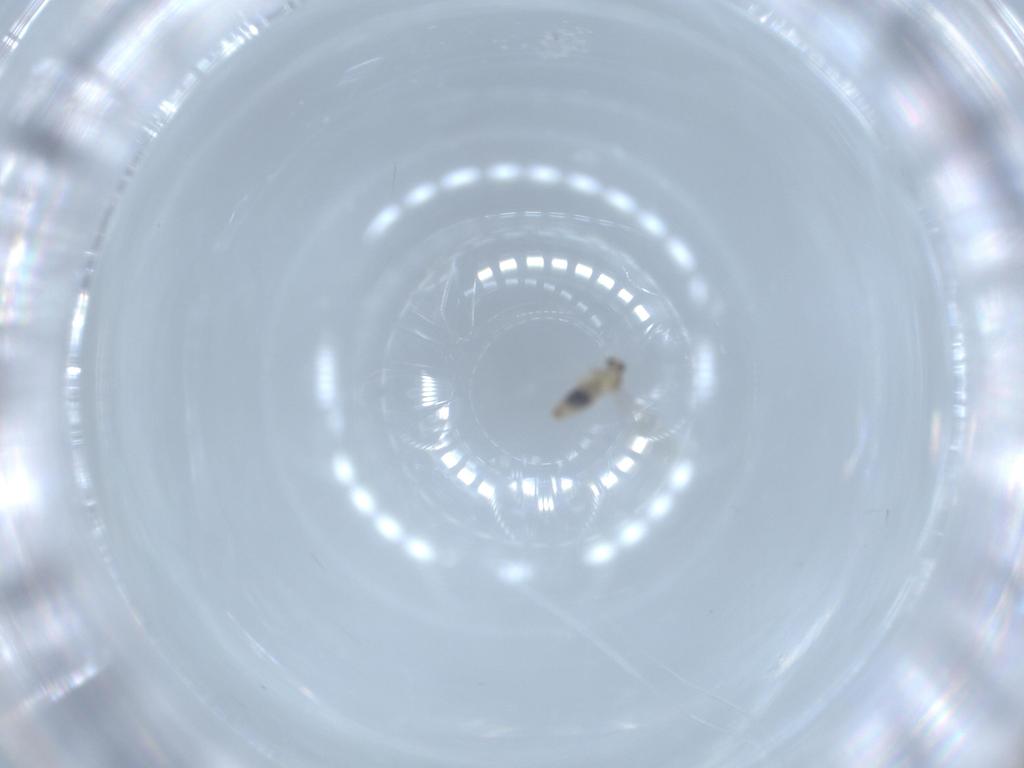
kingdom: Animalia
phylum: Arthropoda
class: Insecta
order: Diptera
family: Cecidomyiidae
